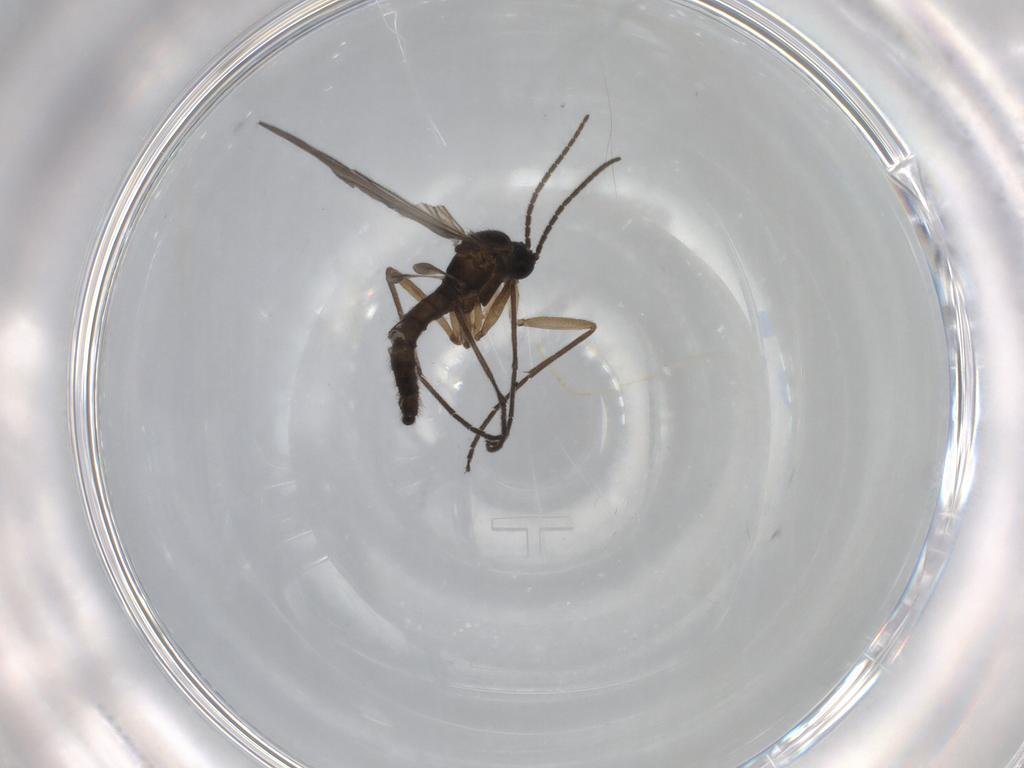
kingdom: Animalia
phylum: Arthropoda
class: Insecta
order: Diptera
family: Sciaridae
